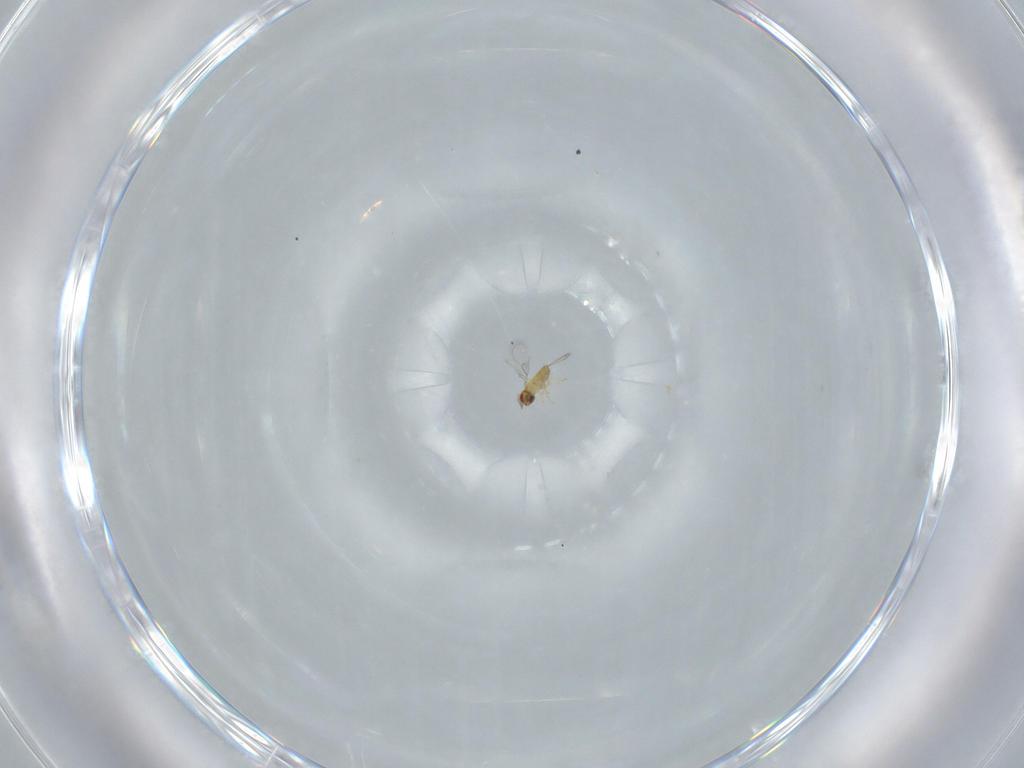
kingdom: Animalia
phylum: Arthropoda
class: Insecta
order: Hymenoptera
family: Trichogrammatidae
